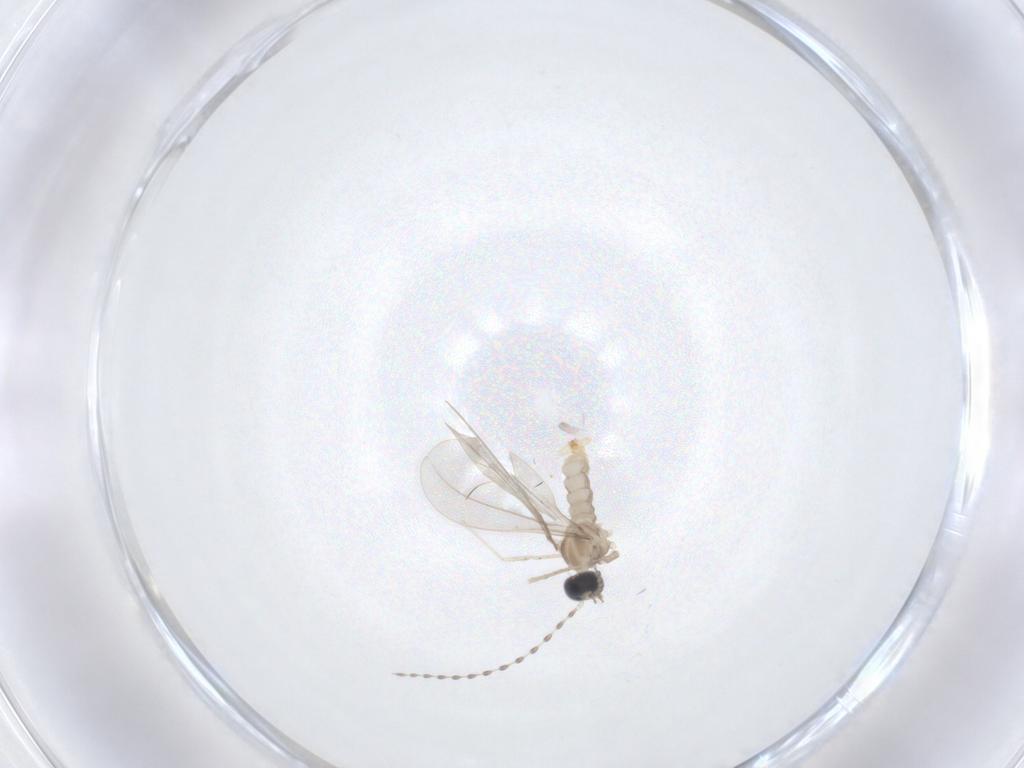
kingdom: Animalia
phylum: Arthropoda
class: Insecta
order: Diptera
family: Cecidomyiidae
